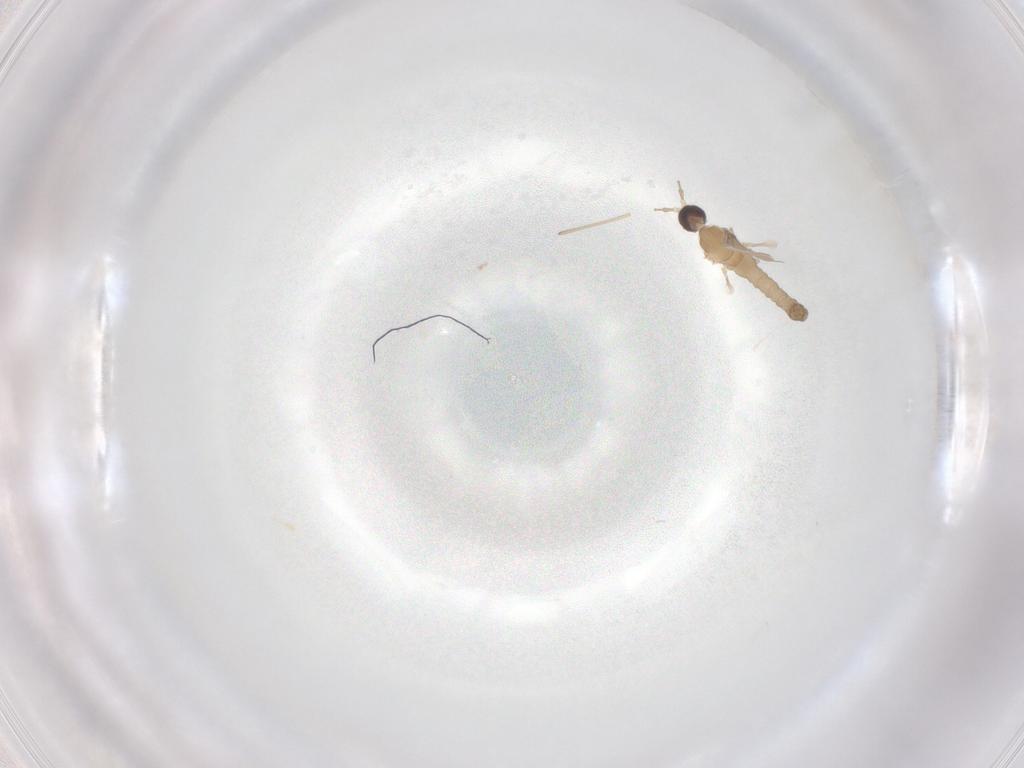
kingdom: Animalia
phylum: Arthropoda
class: Insecta
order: Diptera
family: Cecidomyiidae
